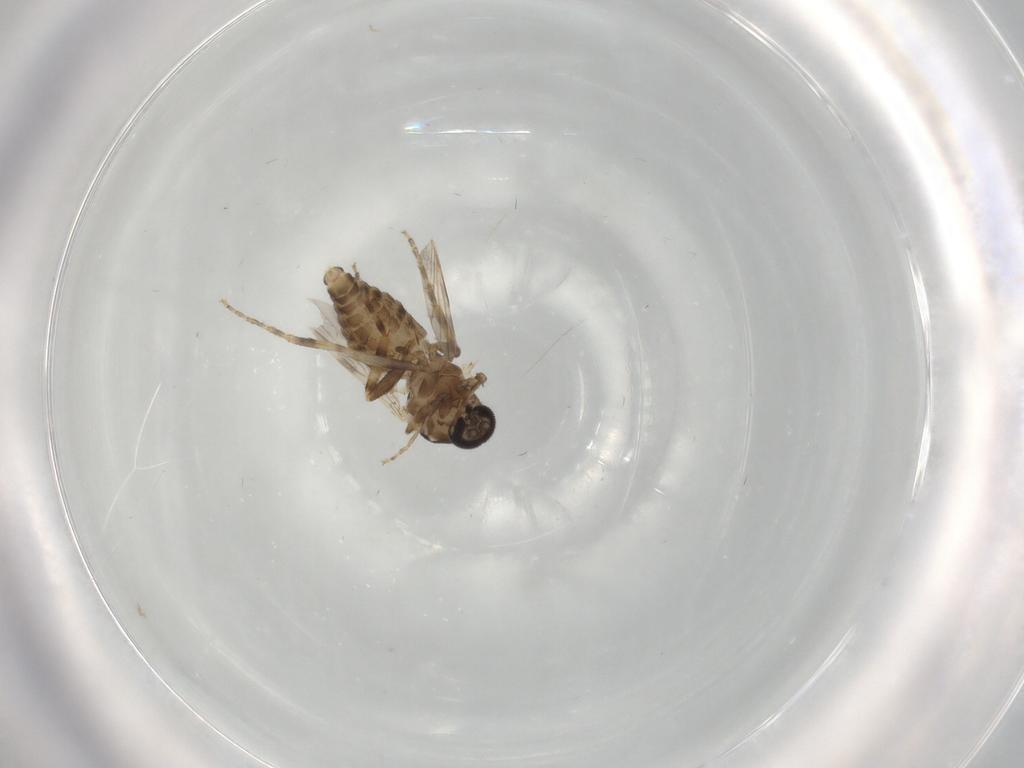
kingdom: Animalia
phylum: Arthropoda
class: Insecta
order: Diptera
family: Ceratopogonidae
